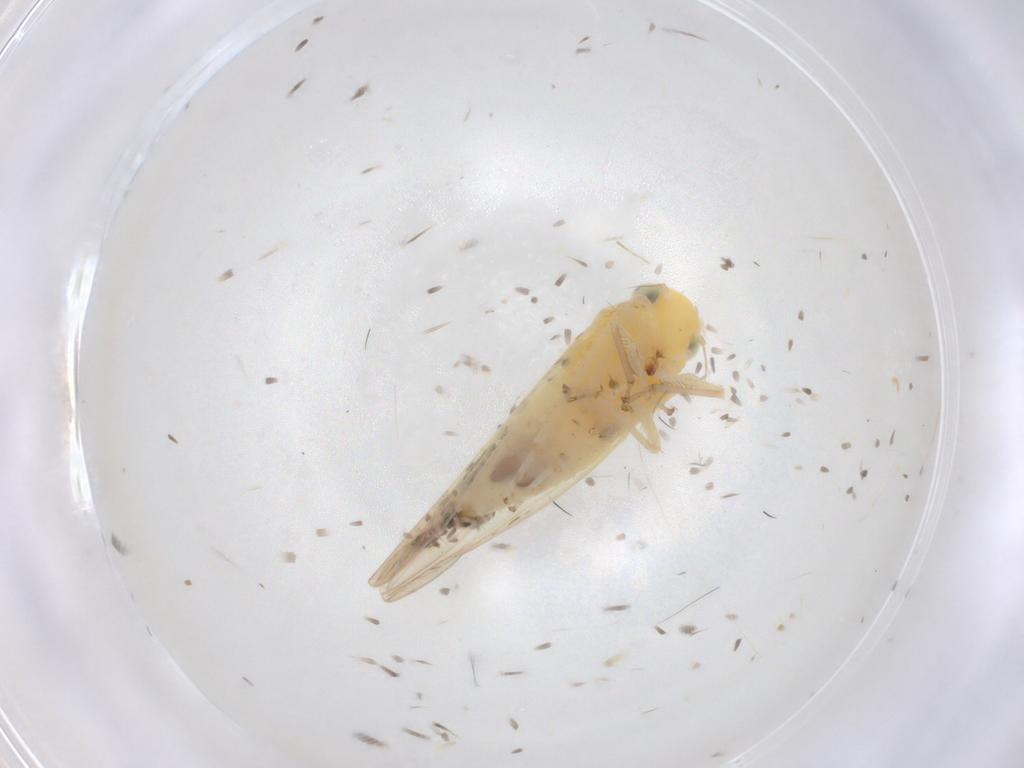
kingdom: Animalia
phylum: Arthropoda
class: Insecta
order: Hemiptera
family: Cicadellidae
